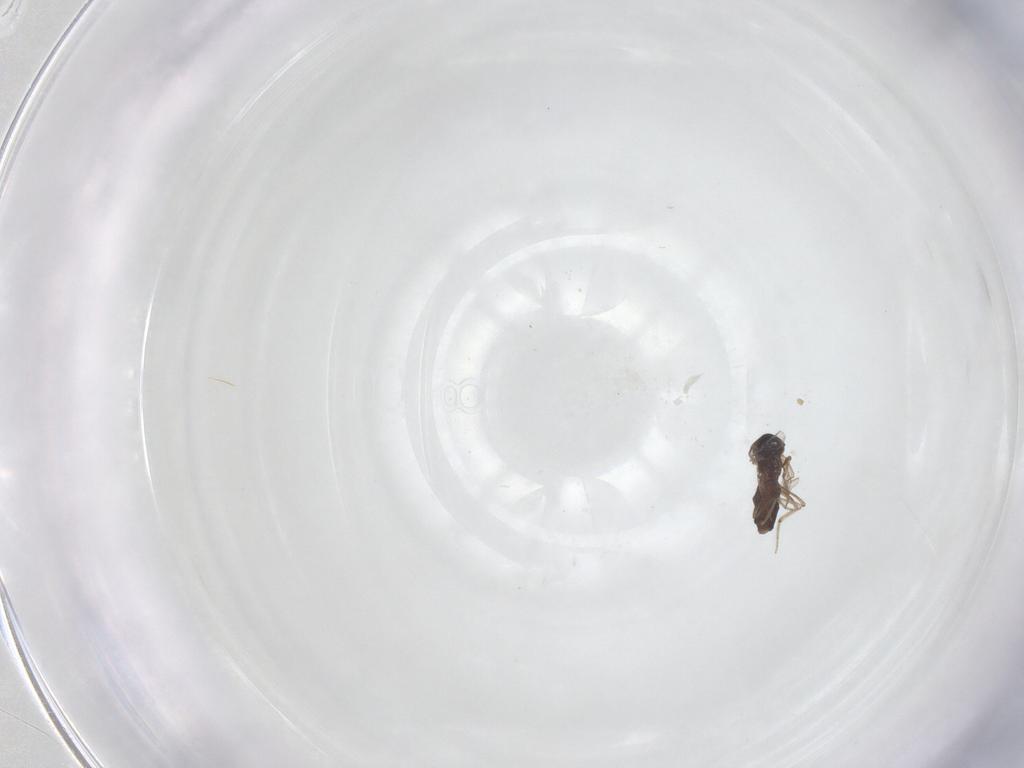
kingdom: Animalia
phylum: Arthropoda
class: Insecta
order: Diptera
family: Ceratopogonidae
